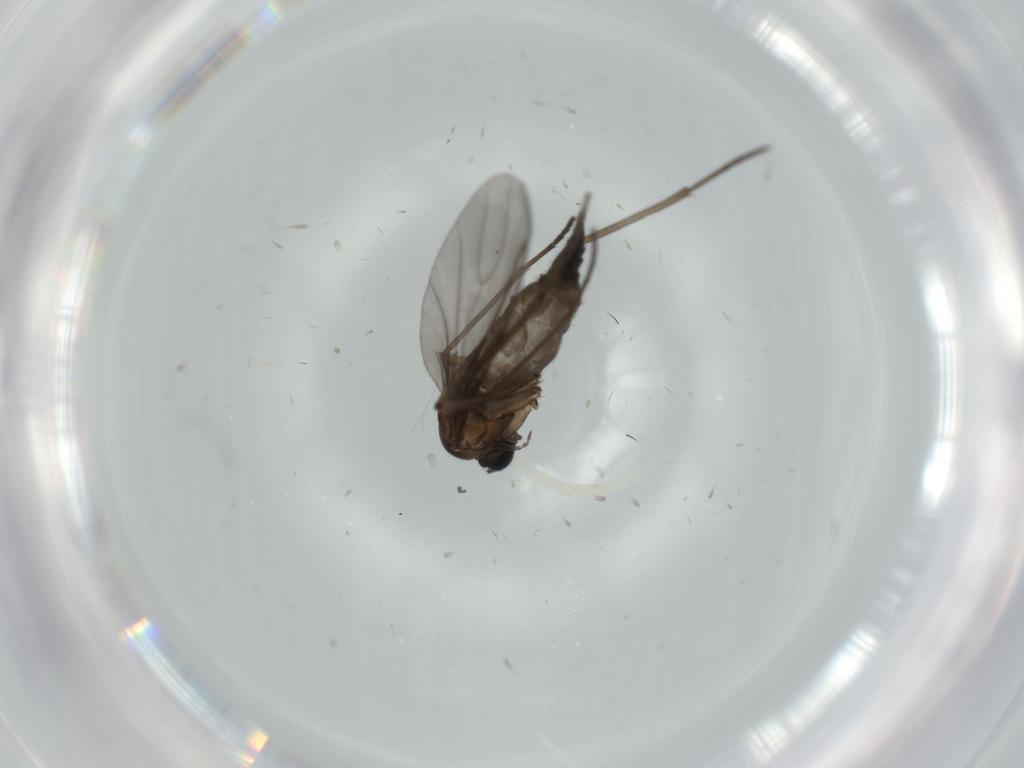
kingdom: Animalia
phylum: Arthropoda
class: Insecta
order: Diptera
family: Sciaridae
